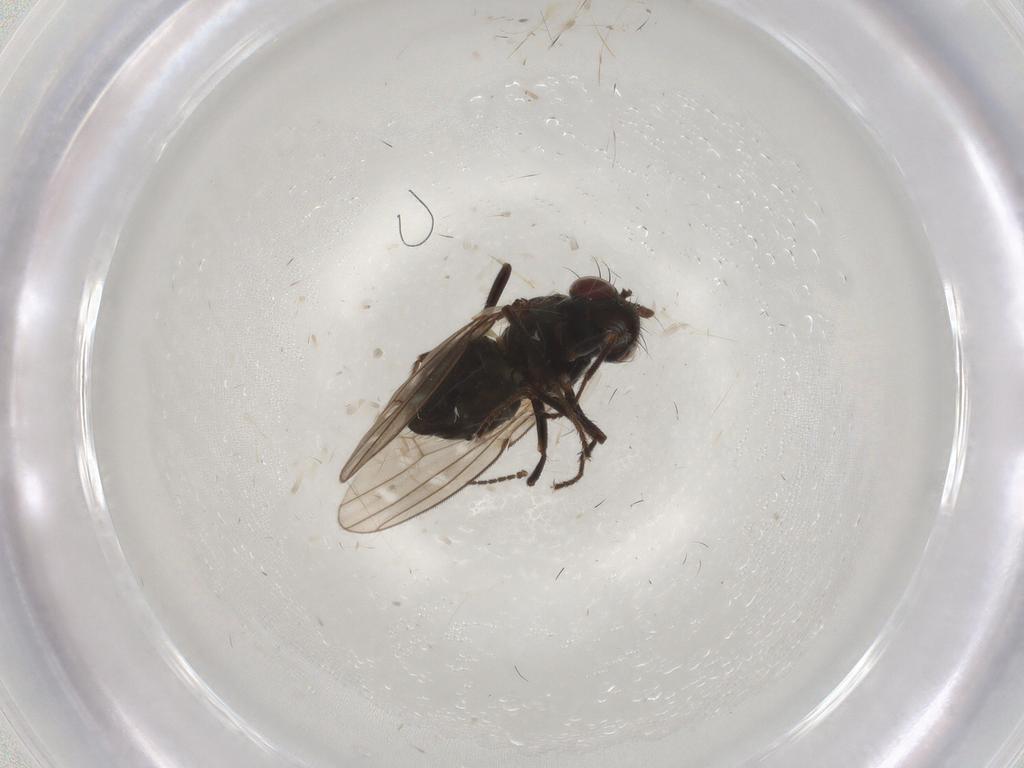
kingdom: Animalia
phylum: Arthropoda
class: Insecta
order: Diptera
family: Ephydridae
